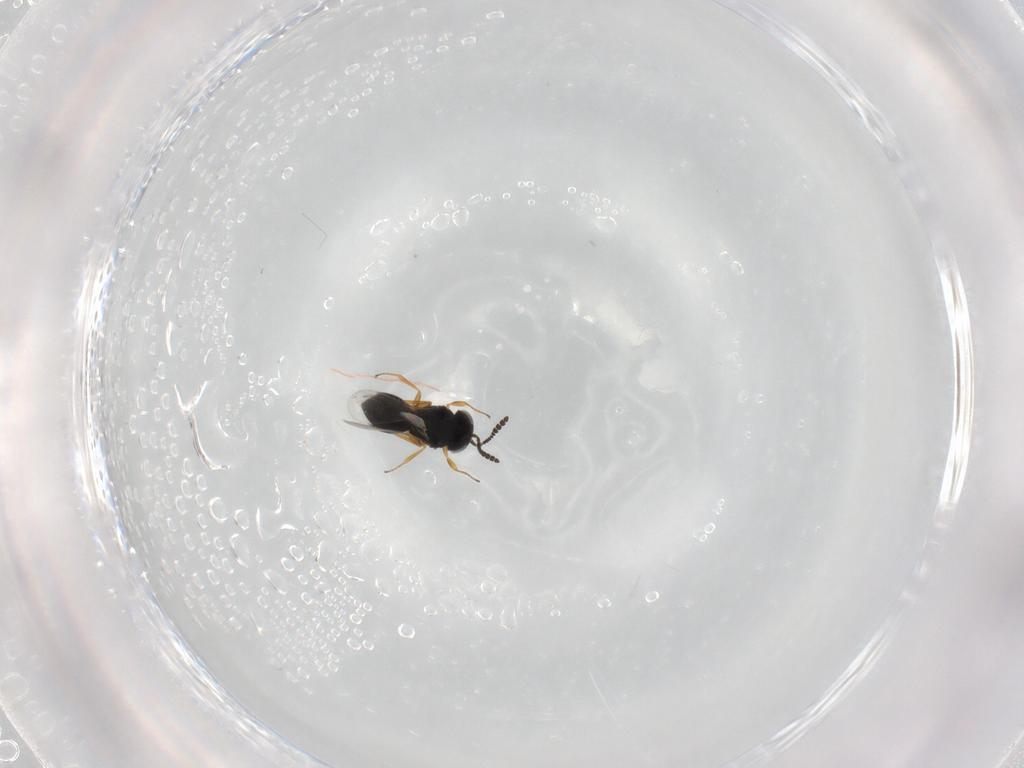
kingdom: Animalia
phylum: Arthropoda
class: Insecta
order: Hymenoptera
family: Scelionidae
